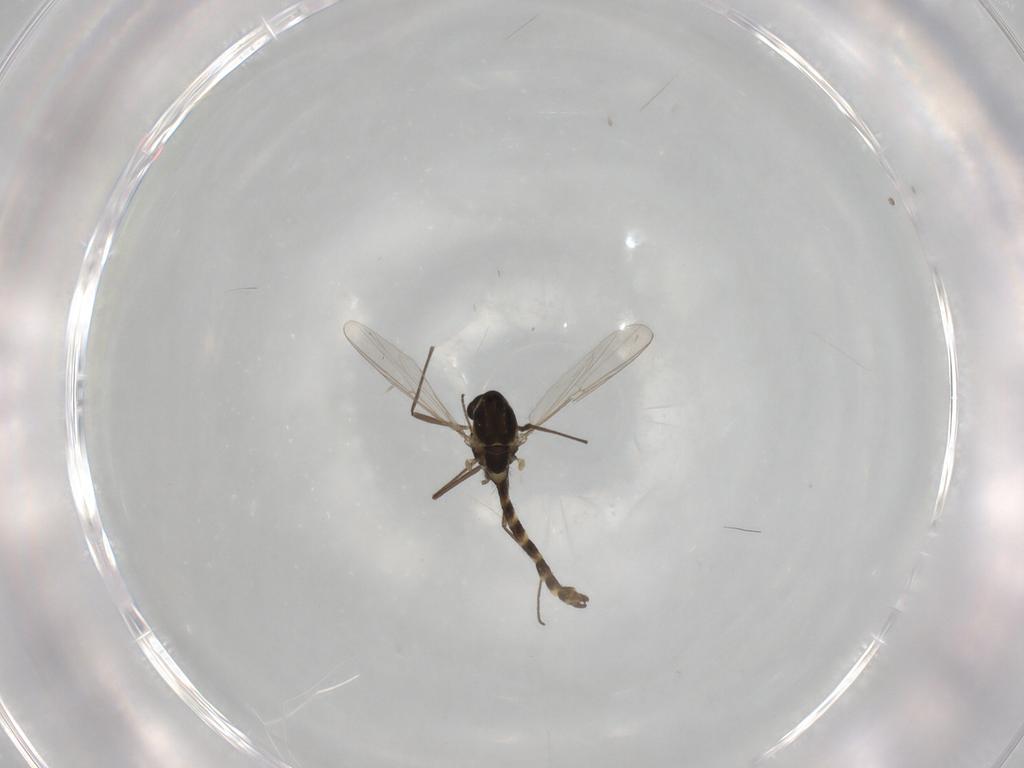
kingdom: Animalia
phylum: Arthropoda
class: Insecta
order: Diptera
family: Chironomidae
